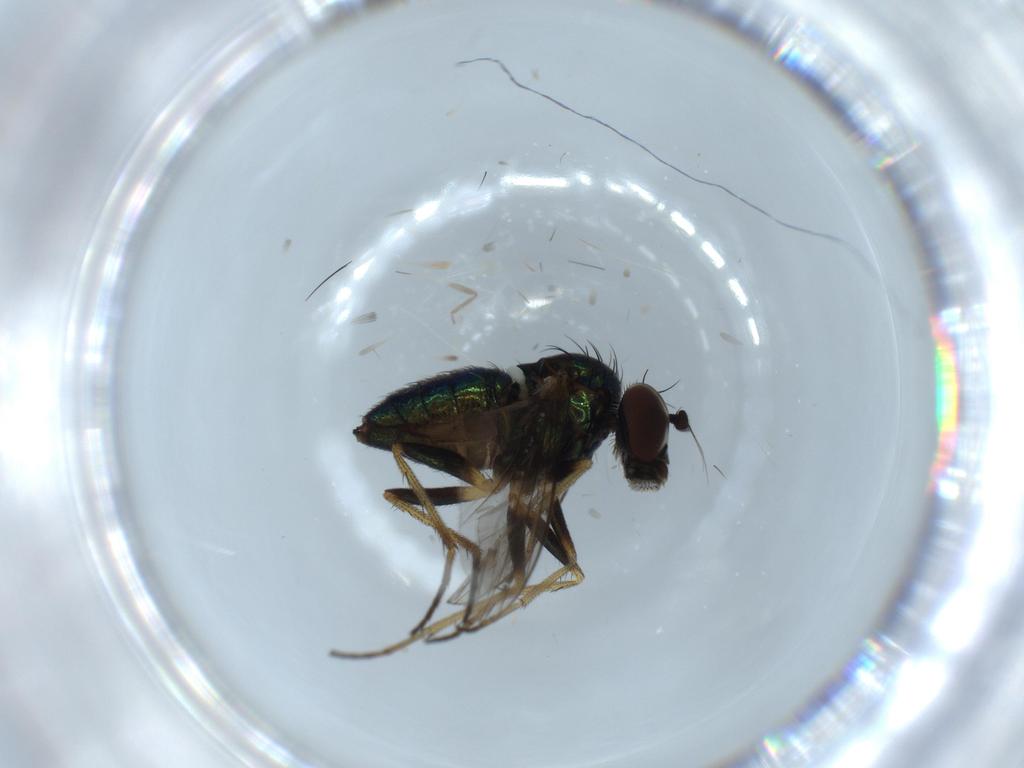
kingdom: Animalia
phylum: Arthropoda
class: Insecta
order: Diptera
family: Dolichopodidae
